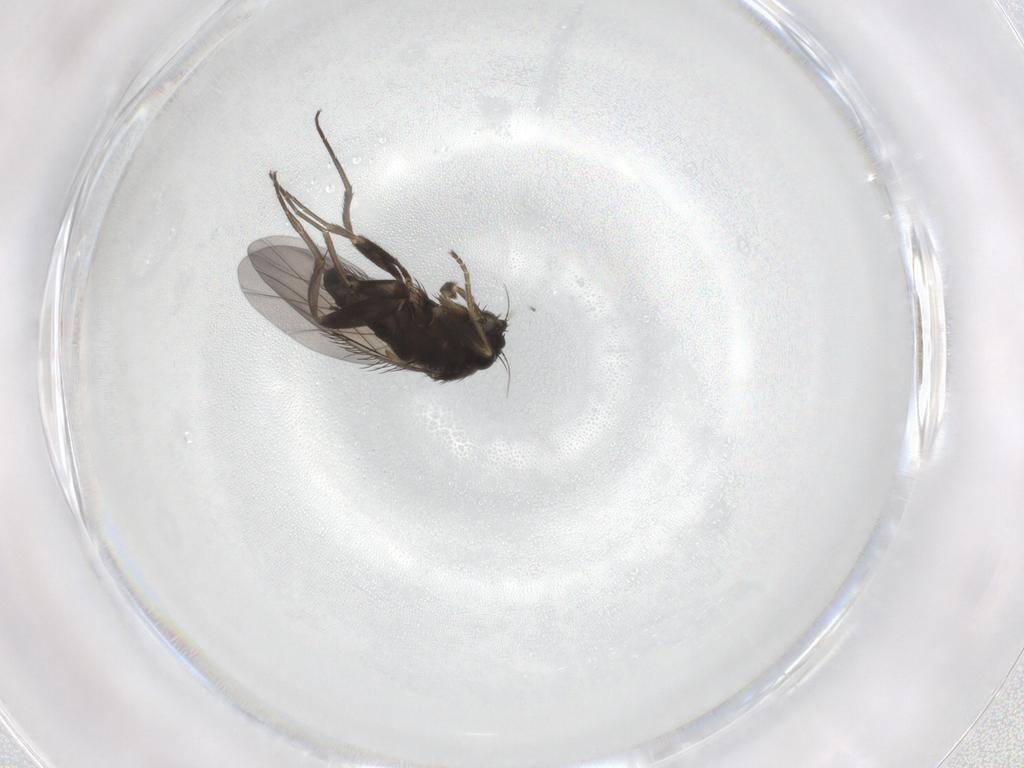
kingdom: Animalia
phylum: Arthropoda
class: Insecta
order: Diptera
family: Phoridae
